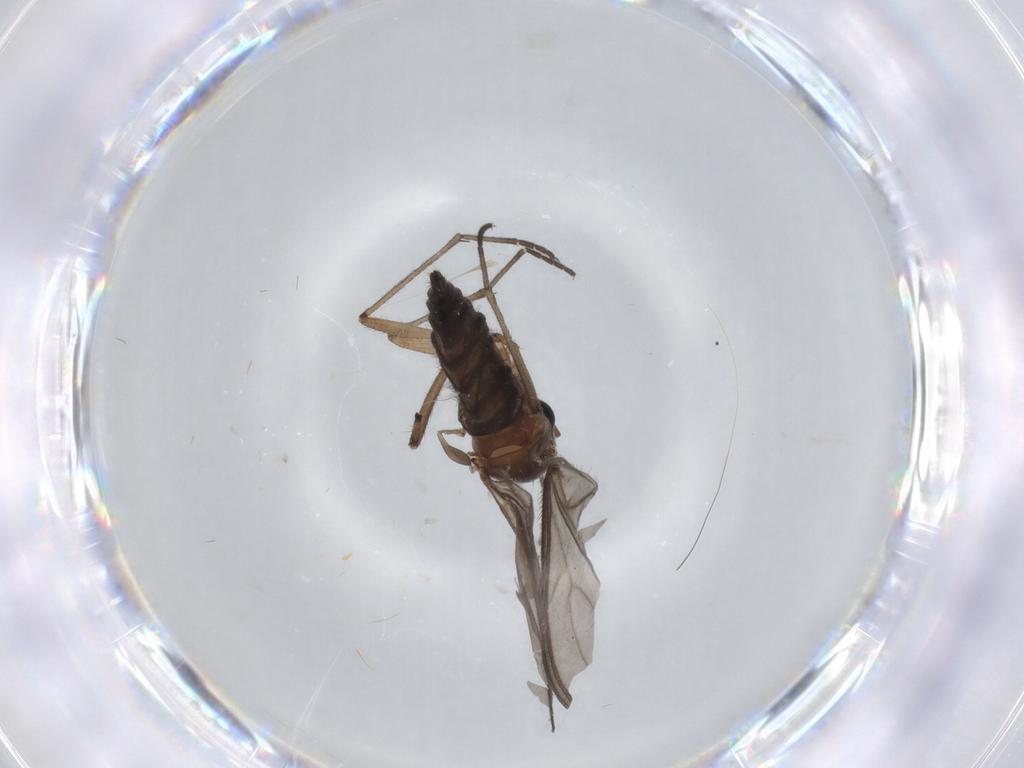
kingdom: Animalia
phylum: Arthropoda
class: Insecta
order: Diptera
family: Sciaridae
